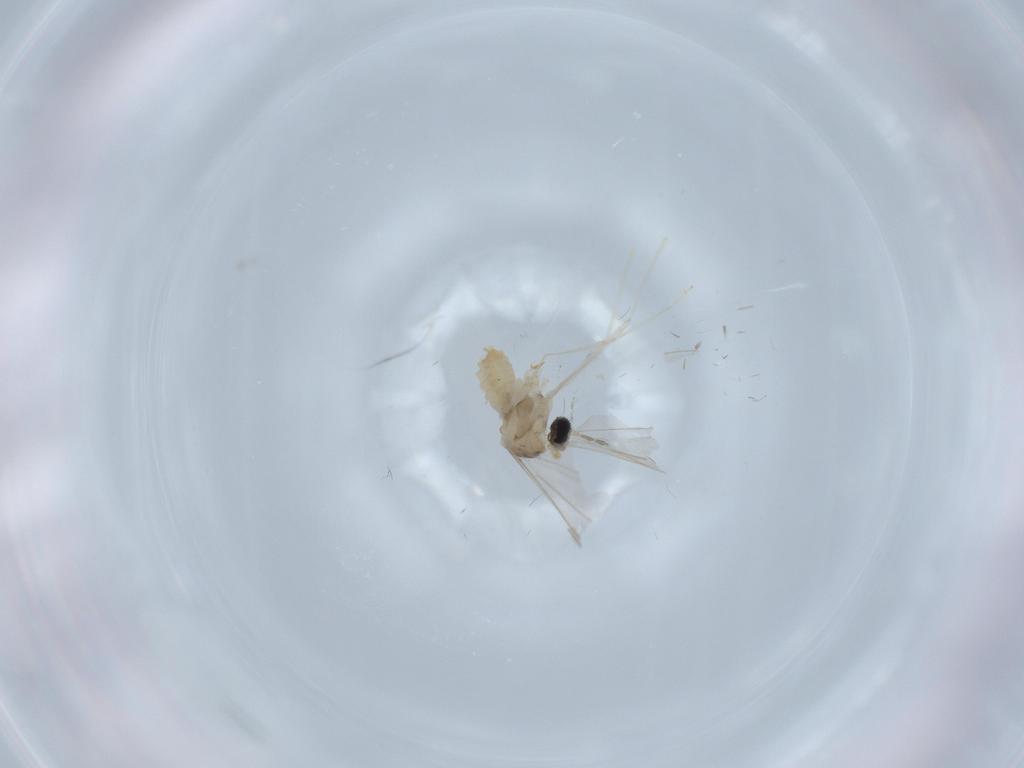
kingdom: Animalia
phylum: Arthropoda
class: Insecta
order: Diptera
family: Cecidomyiidae
